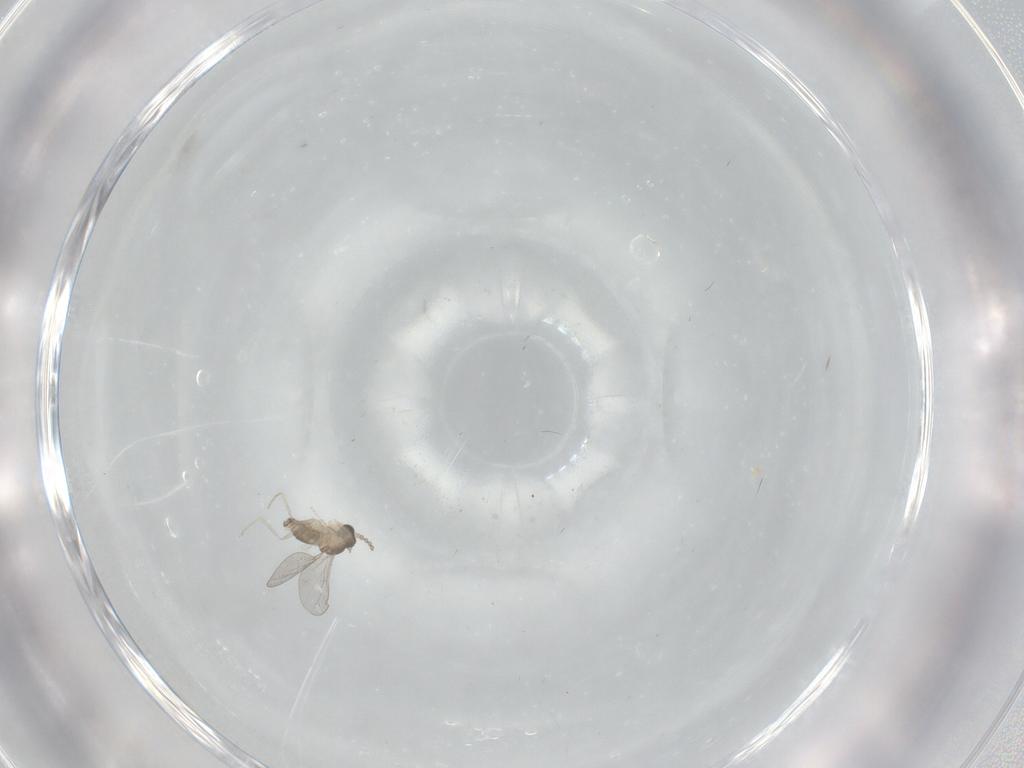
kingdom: Animalia
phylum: Arthropoda
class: Insecta
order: Diptera
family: Cecidomyiidae
